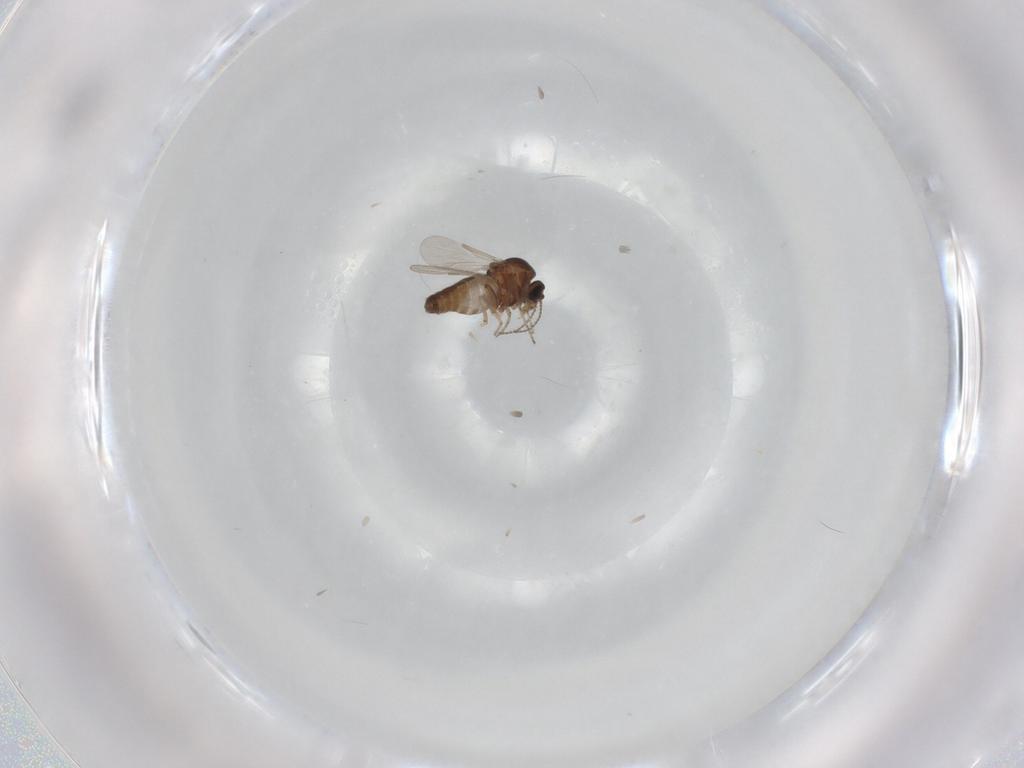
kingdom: Animalia
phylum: Arthropoda
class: Insecta
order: Diptera
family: Ceratopogonidae
